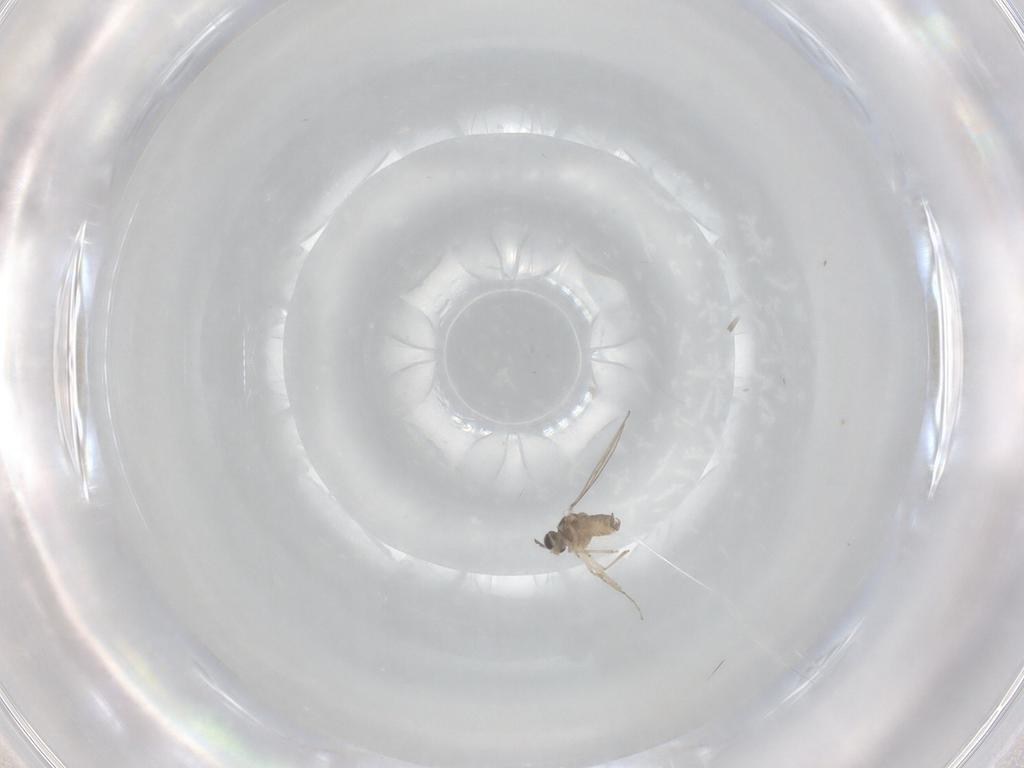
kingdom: Animalia
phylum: Arthropoda
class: Insecta
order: Diptera
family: Cecidomyiidae
